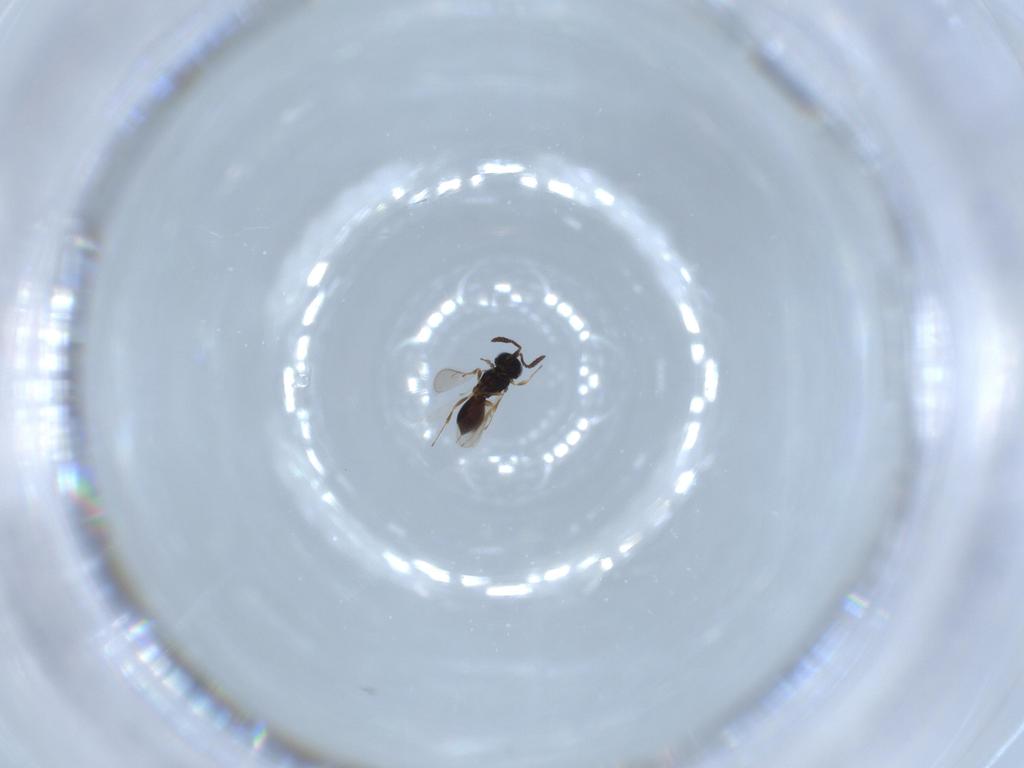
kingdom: Animalia
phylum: Arthropoda
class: Insecta
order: Hymenoptera
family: Scelionidae
